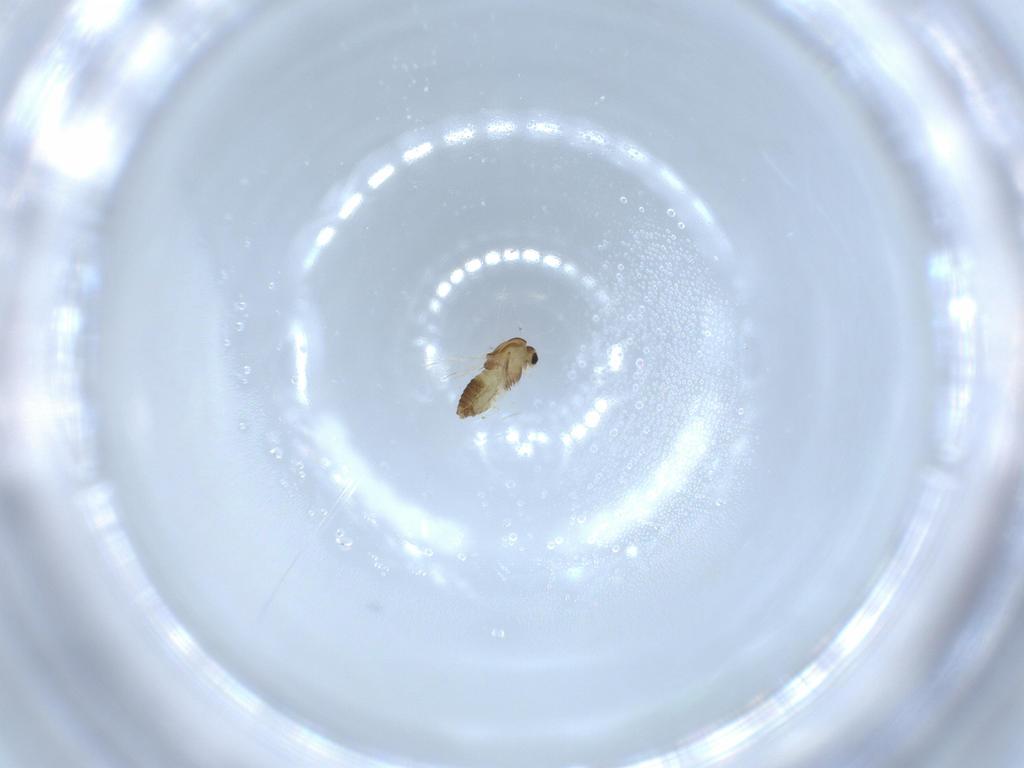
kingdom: Animalia
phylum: Arthropoda
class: Insecta
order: Diptera
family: Chironomidae
